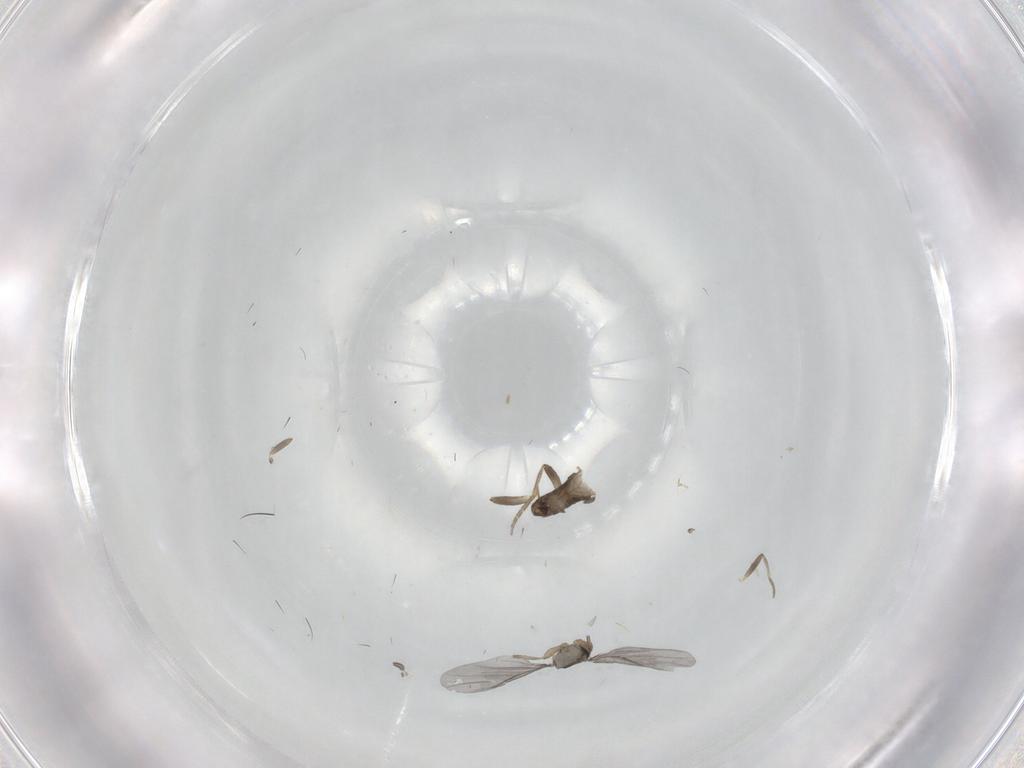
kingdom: Animalia
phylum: Arthropoda
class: Insecta
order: Diptera
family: Phoridae
